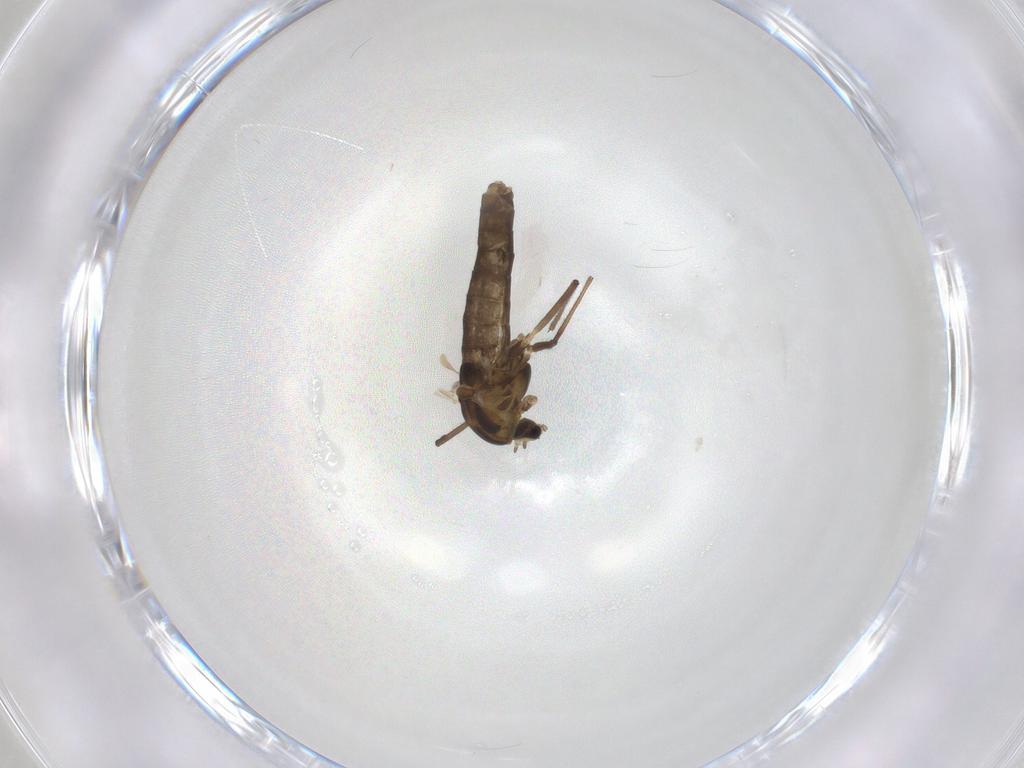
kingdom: Animalia
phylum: Arthropoda
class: Insecta
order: Diptera
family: Chironomidae
